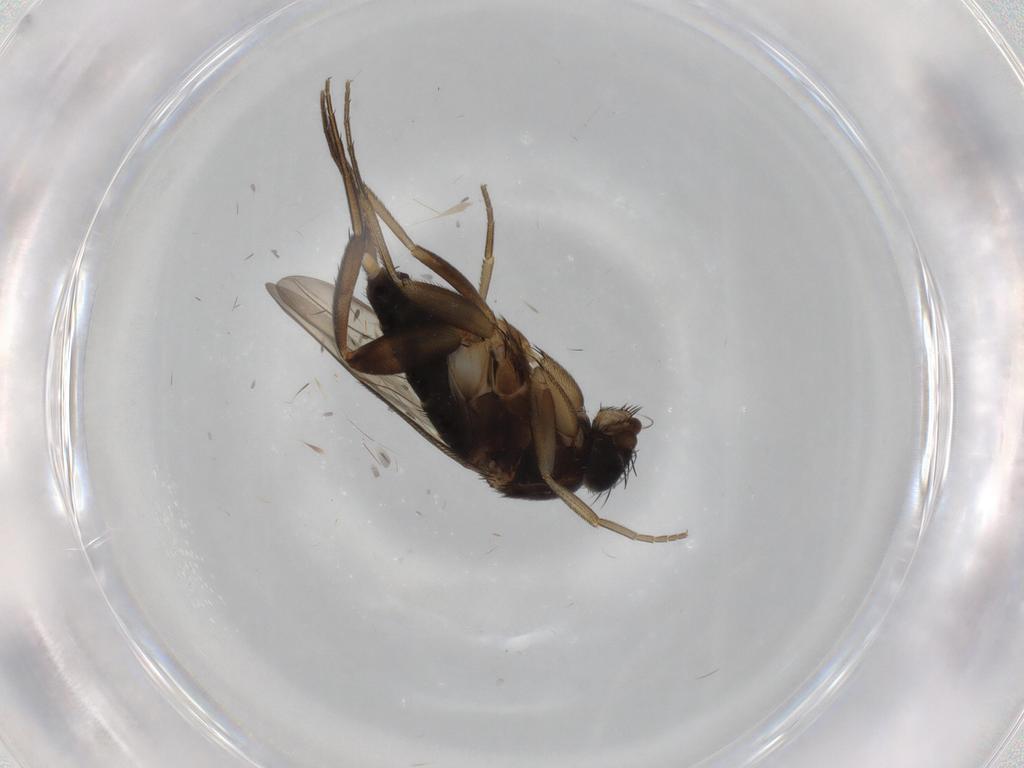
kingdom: Animalia
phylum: Arthropoda
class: Insecta
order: Diptera
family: Phoridae
